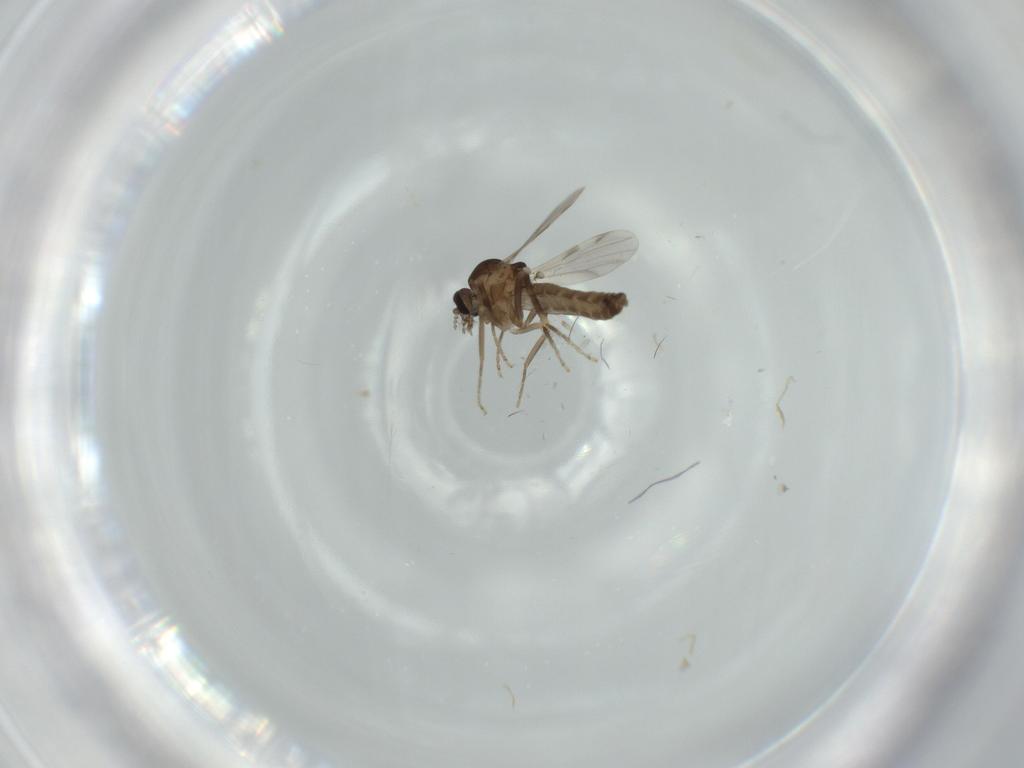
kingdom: Animalia
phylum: Arthropoda
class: Insecta
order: Diptera
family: Ceratopogonidae
